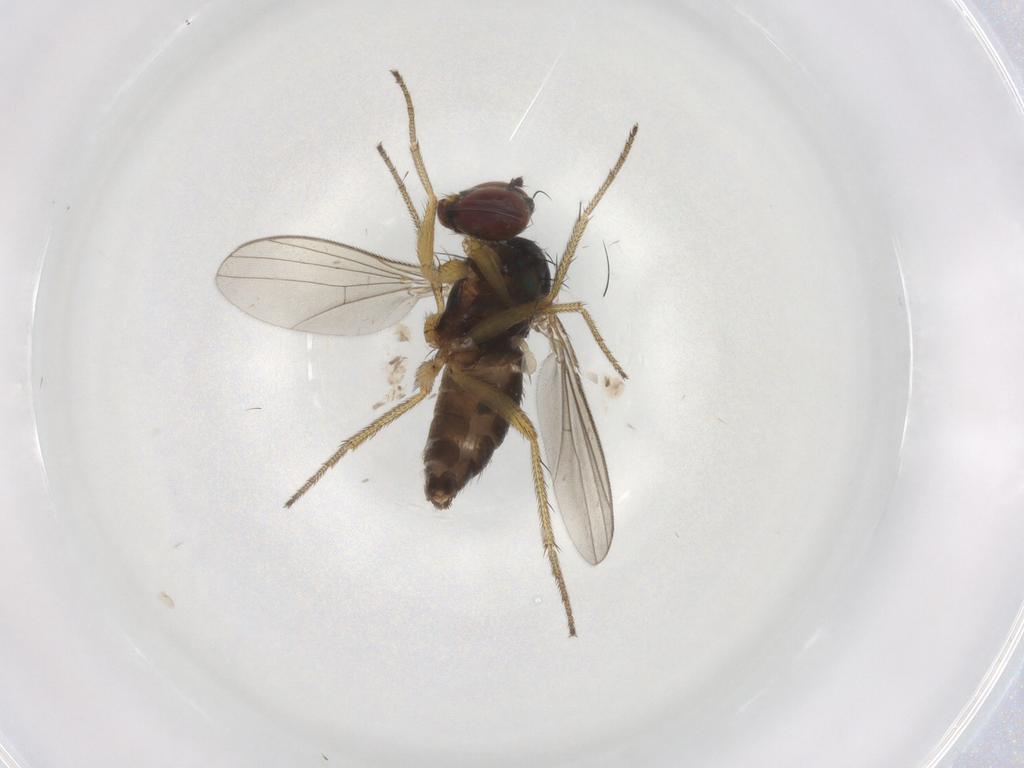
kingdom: Animalia
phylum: Arthropoda
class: Insecta
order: Diptera
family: Dolichopodidae
